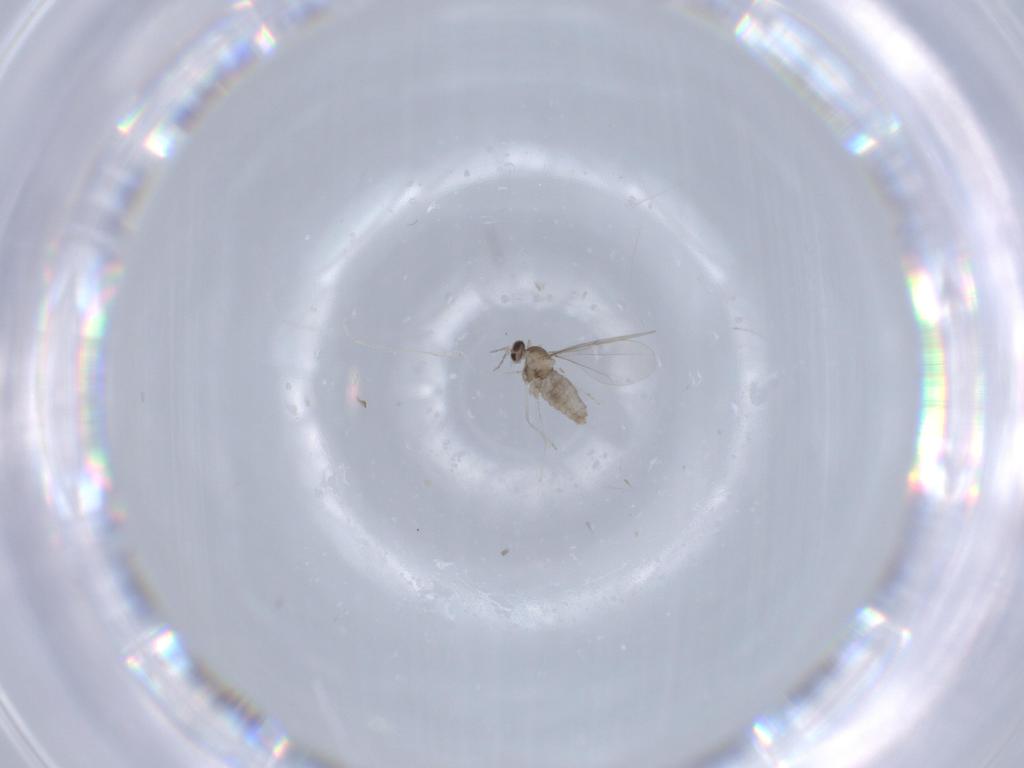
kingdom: Animalia
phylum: Arthropoda
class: Insecta
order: Diptera
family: Cecidomyiidae
